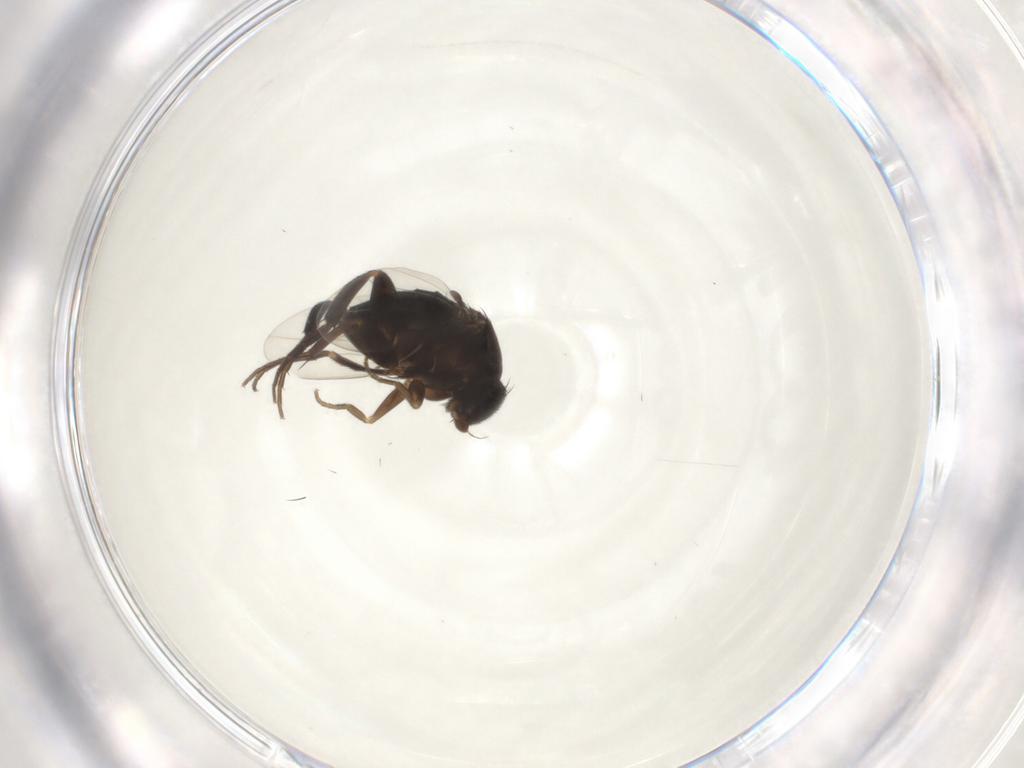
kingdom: Animalia
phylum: Arthropoda
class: Insecta
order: Diptera
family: Phoridae
